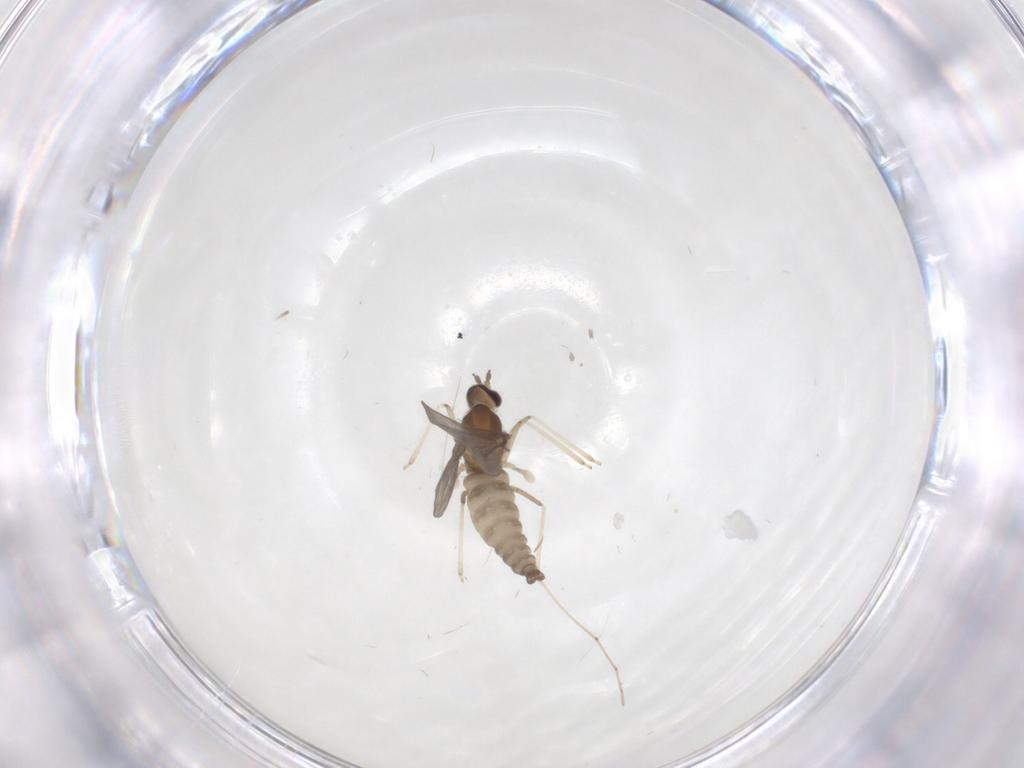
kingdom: Animalia
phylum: Arthropoda
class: Insecta
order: Diptera
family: Cecidomyiidae
